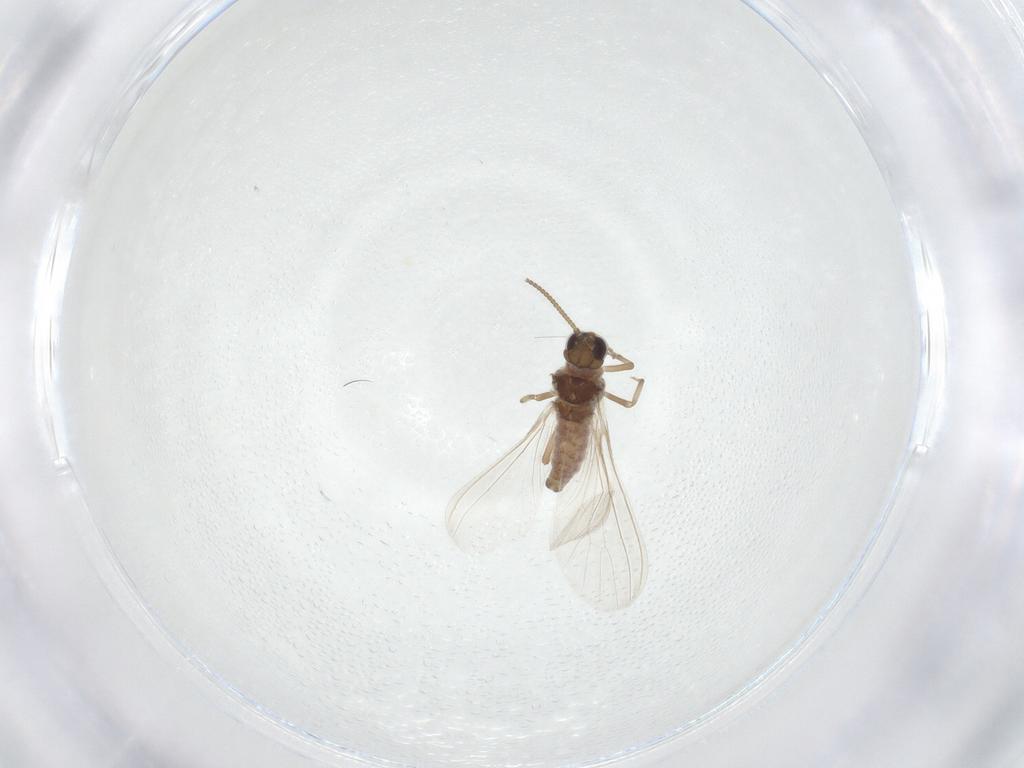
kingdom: Animalia
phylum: Arthropoda
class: Insecta
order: Neuroptera
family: Coniopterygidae
